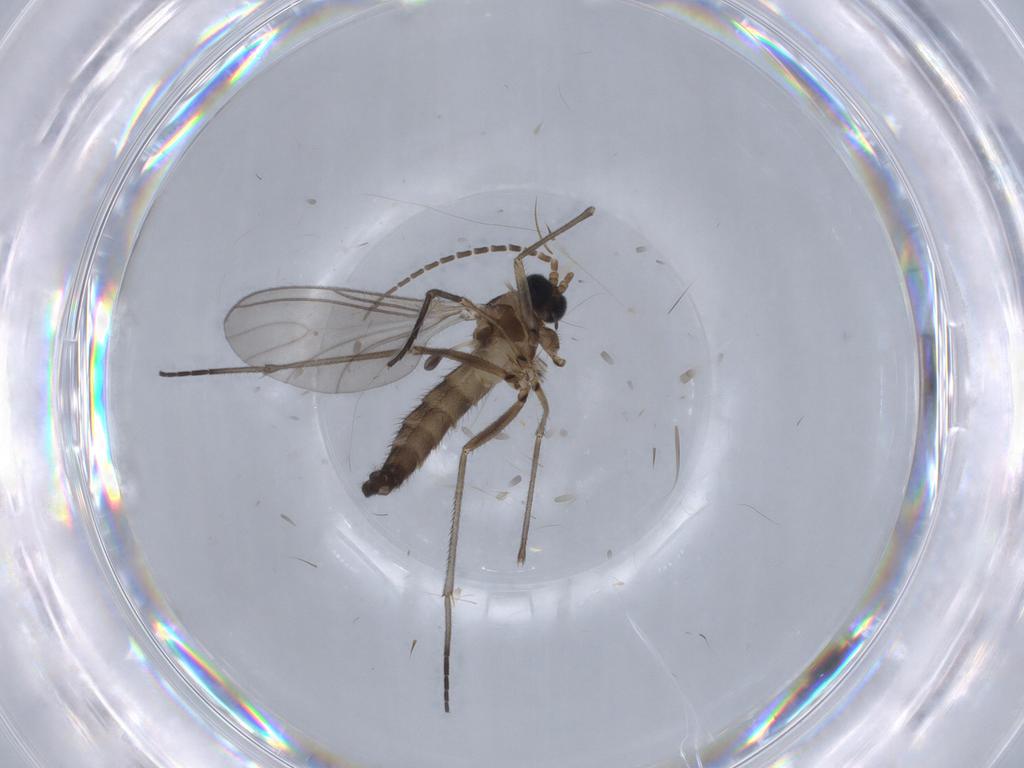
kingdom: Animalia
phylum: Arthropoda
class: Insecta
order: Diptera
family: Sciaridae
